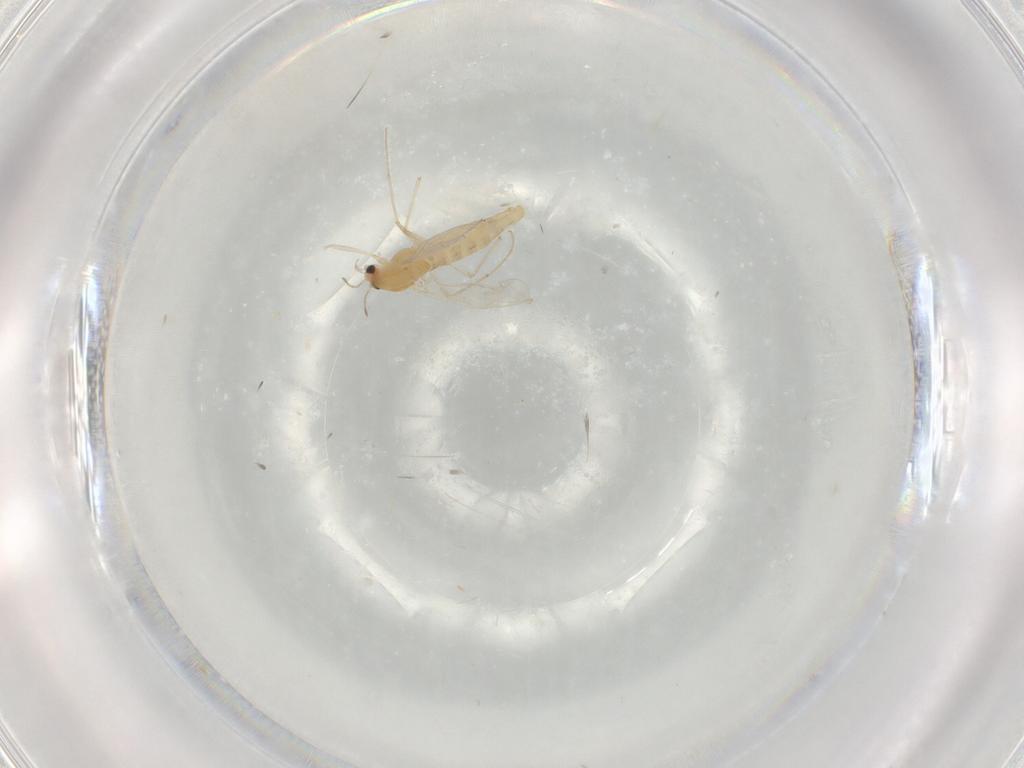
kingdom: Animalia
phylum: Arthropoda
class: Insecta
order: Diptera
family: Chironomidae
